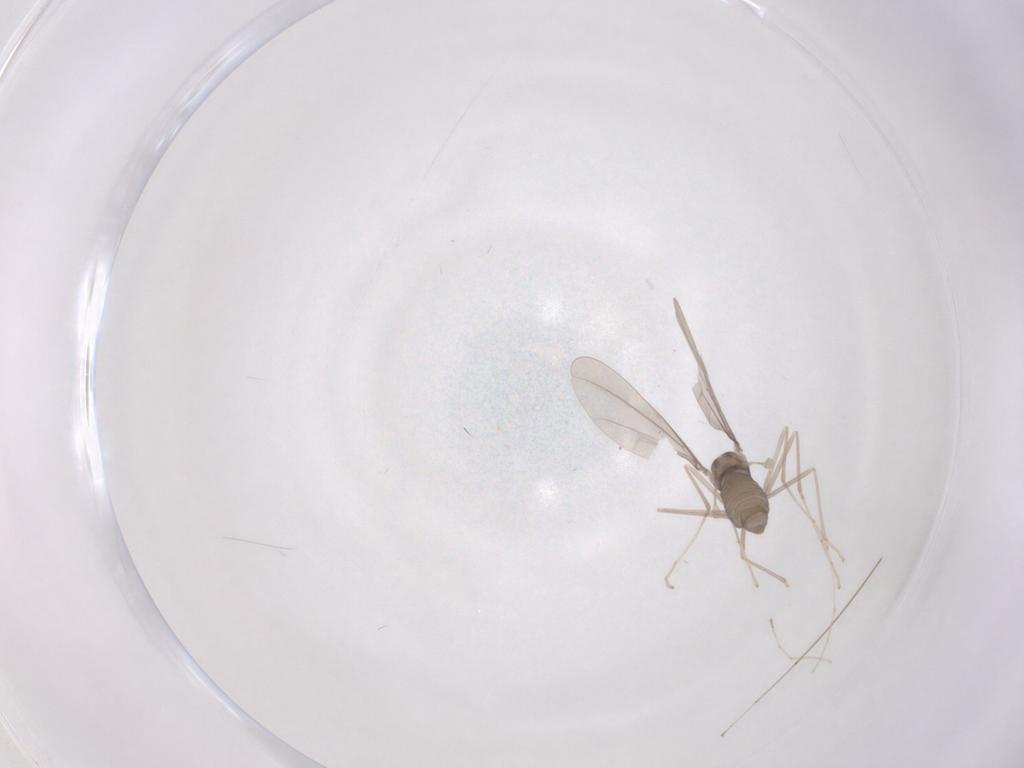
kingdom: Animalia
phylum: Arthropoda
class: Insecta
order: Diptera
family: Cecidomyiidae
